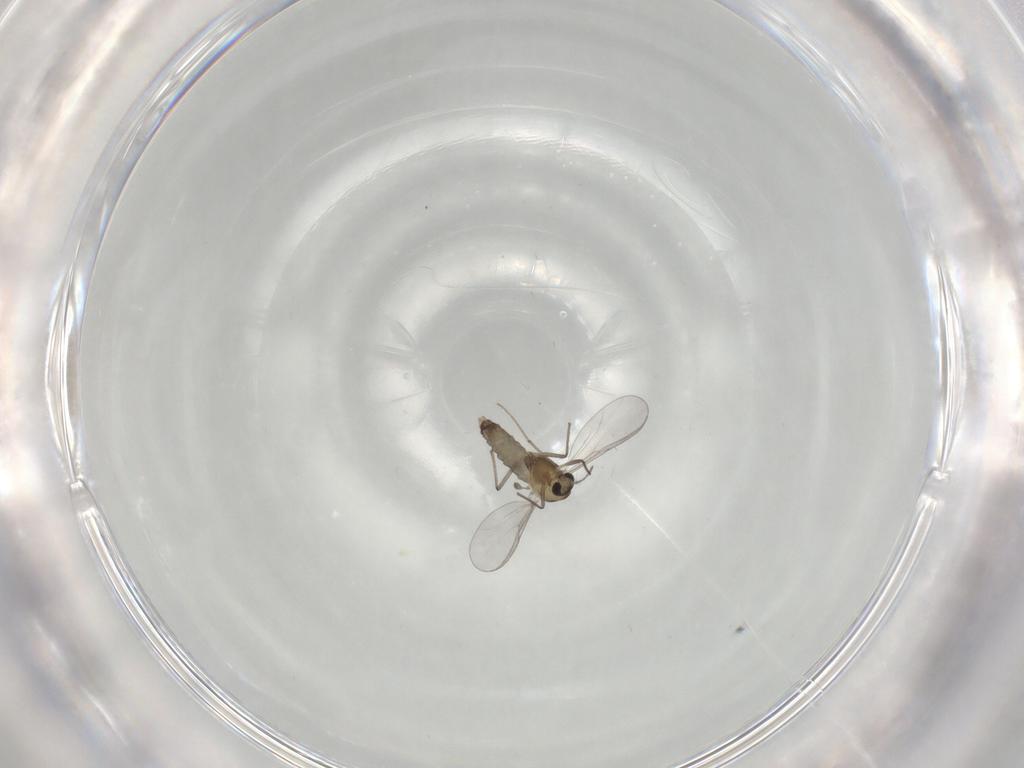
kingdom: Animalia
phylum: Arthropoda
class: Insecta
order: Diptera
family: Chironomidae
